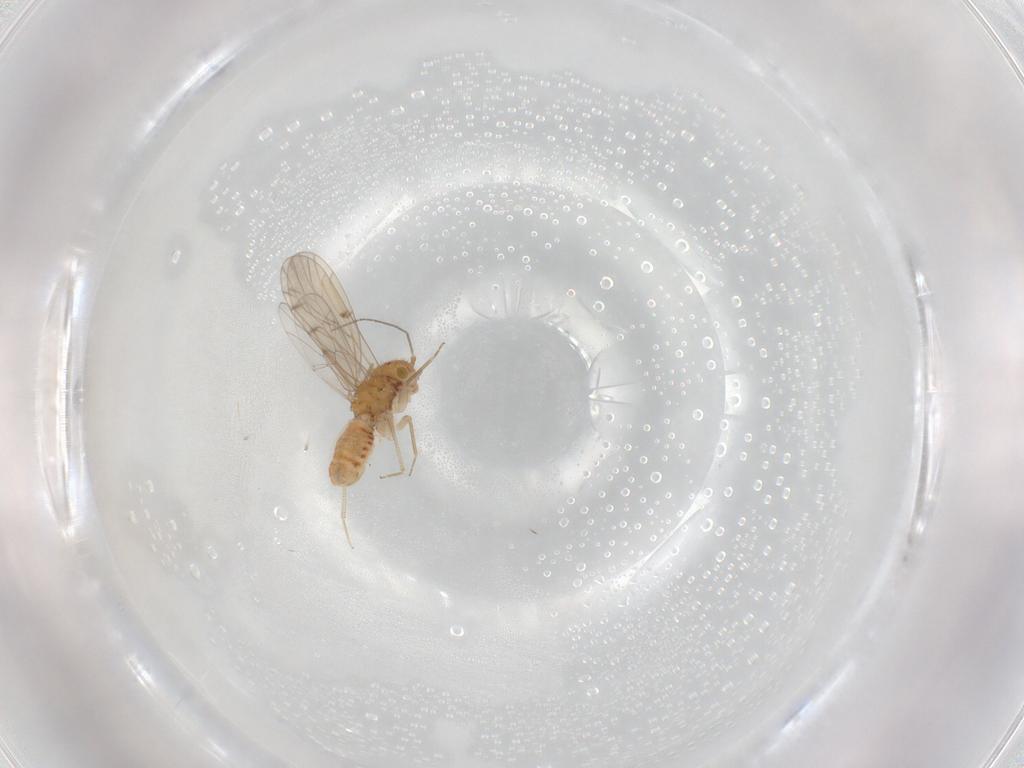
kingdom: Animalia
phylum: Arthropoda
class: Insecta
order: Psocodea
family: Ectopsocidae
